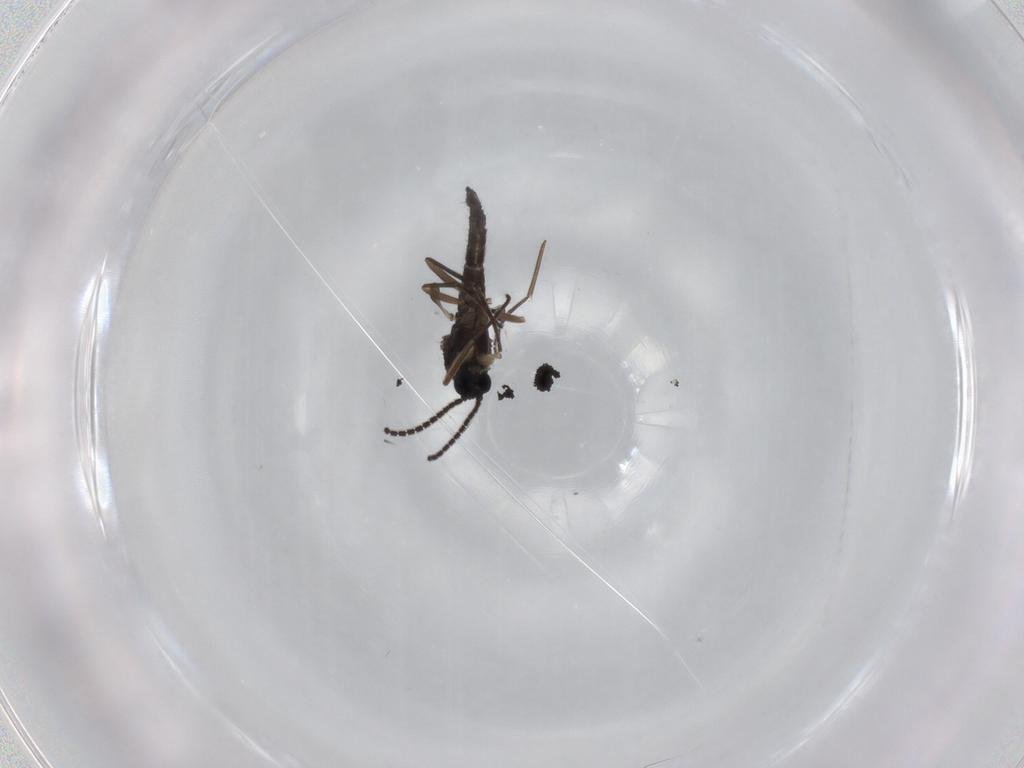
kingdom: Animalia
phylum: Arthropoda
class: Insecta
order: Diptera
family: Sciaridae
